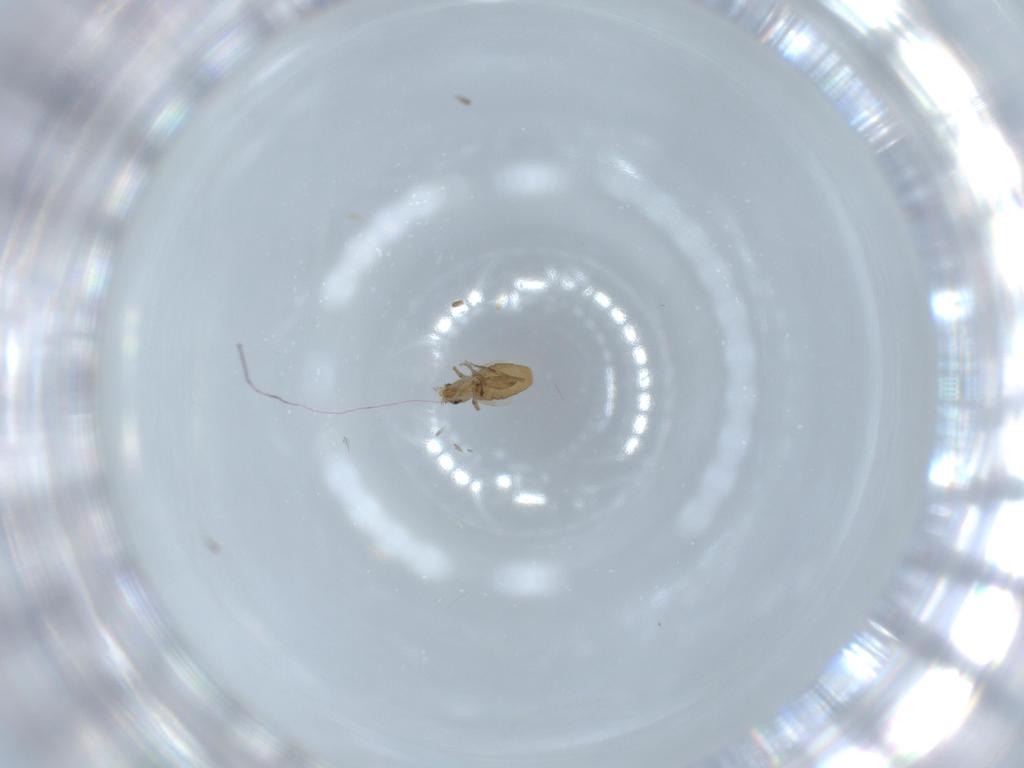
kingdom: Animalia
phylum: Arthropoda
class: Insecta
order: Diptera
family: Phoridae
